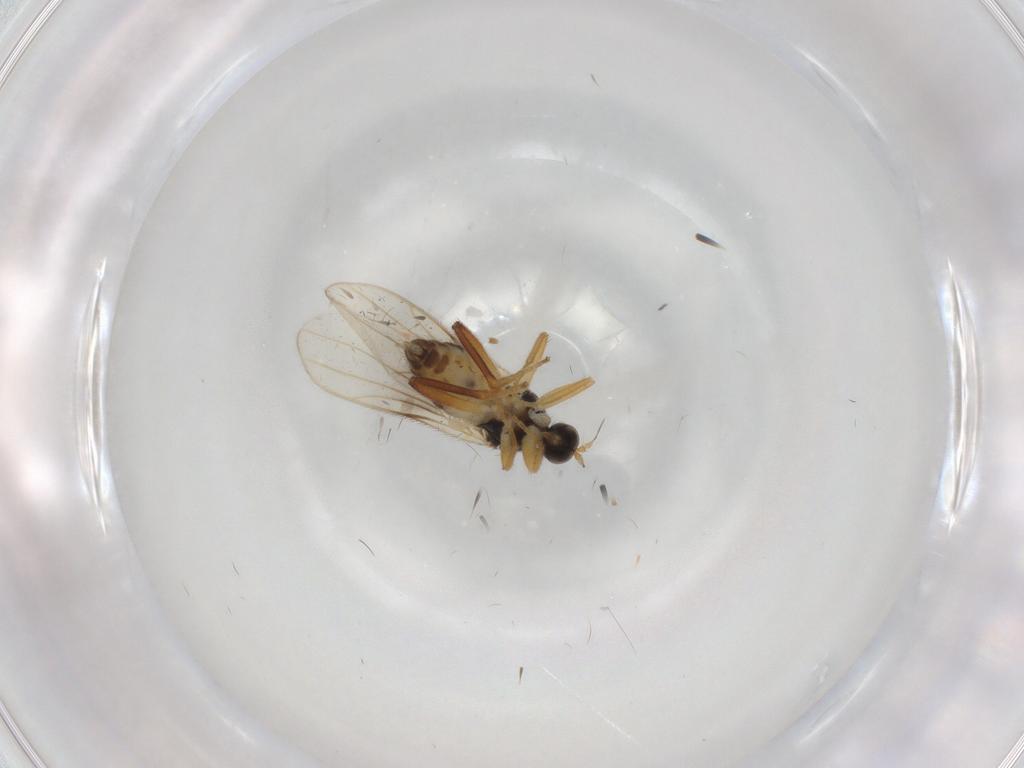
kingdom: Animalia
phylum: Arthropoda
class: Insecta
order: Diptera
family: Hybotidae
